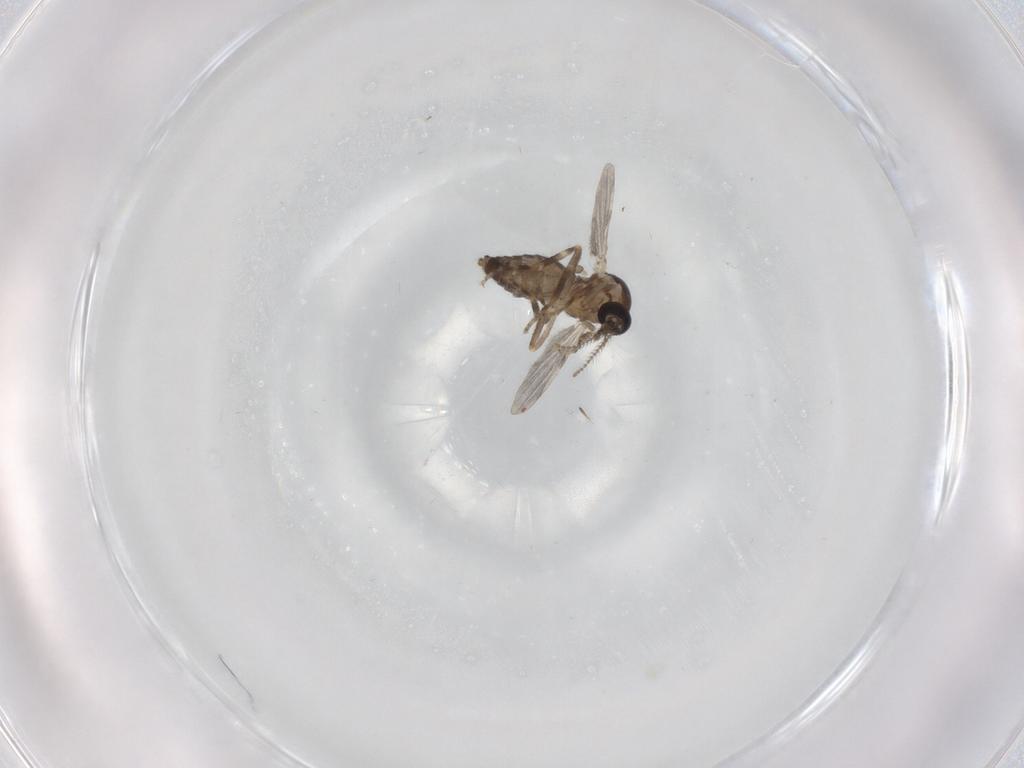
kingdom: Animalia
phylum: Arthropoda
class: Insecta
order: Diptera
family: Ceratopogonidae
